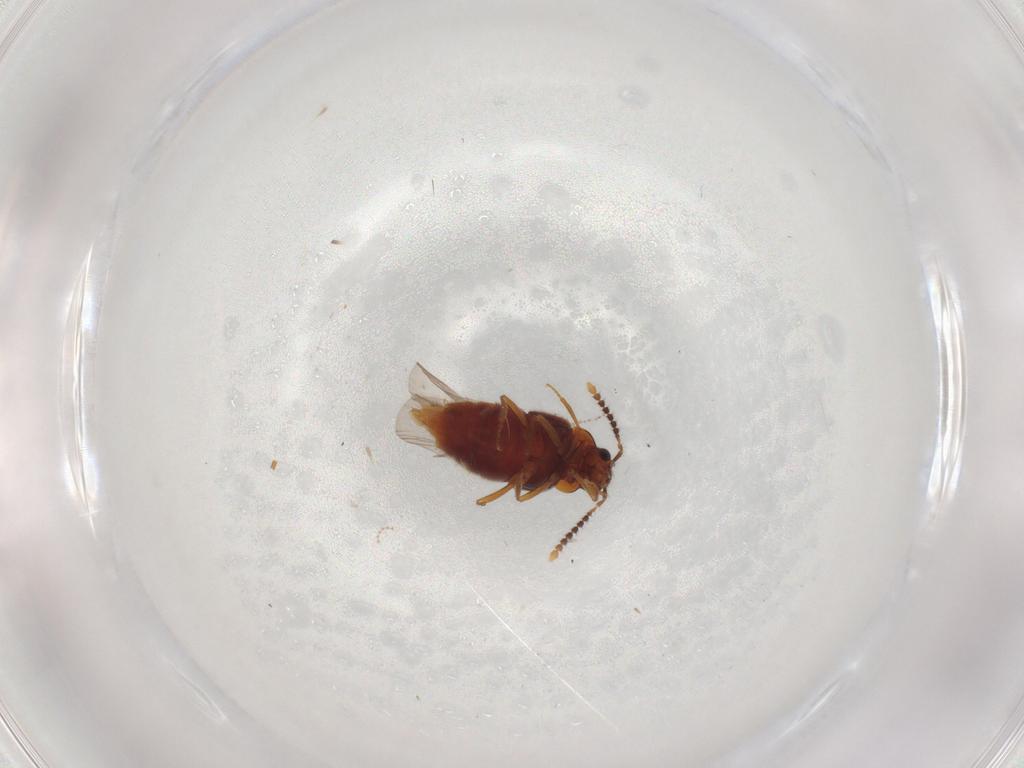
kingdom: Animalia
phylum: Arthropoda
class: Insecta
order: Coleoptera
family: Staphylinidae
